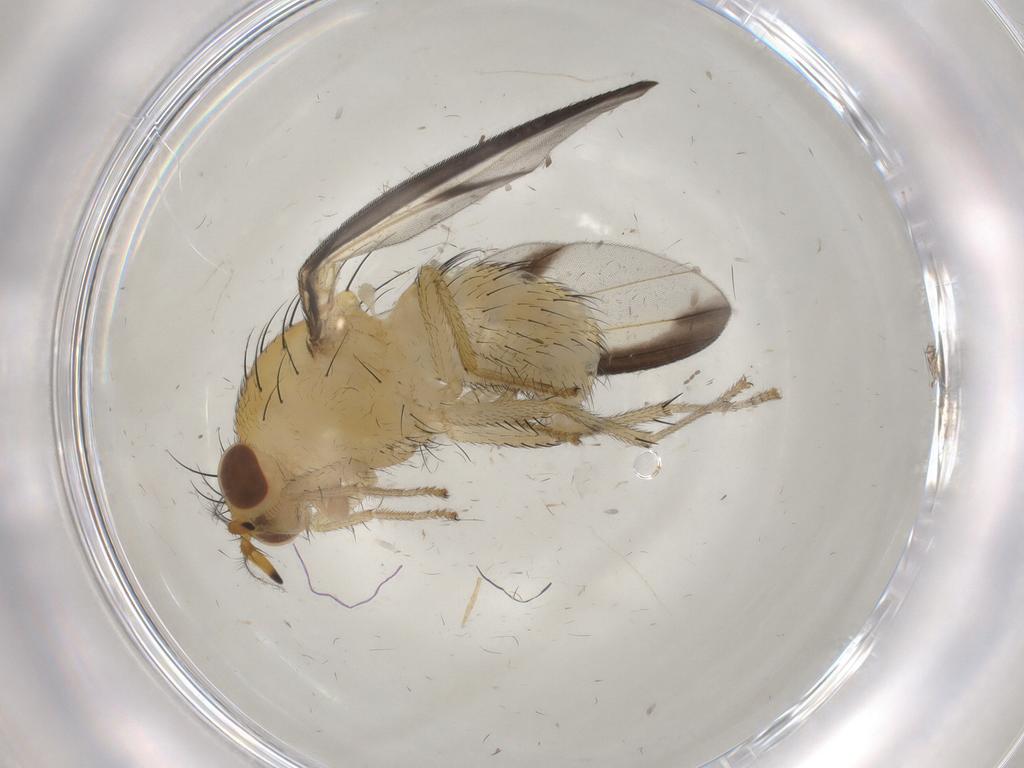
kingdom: Animalia
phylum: Arthropoda
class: Insecta
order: Diptera
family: Lauxaniidae
